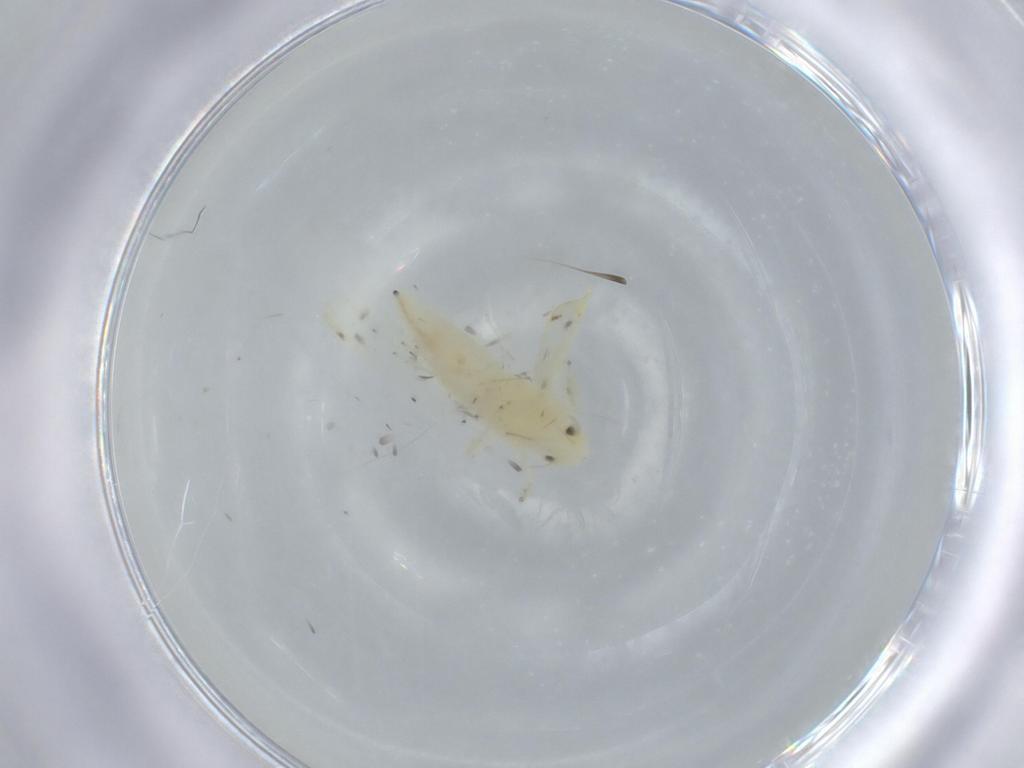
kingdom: Animalia
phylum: Arthropoda
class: Insecta
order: Hemiptera
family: Cicadellidae
